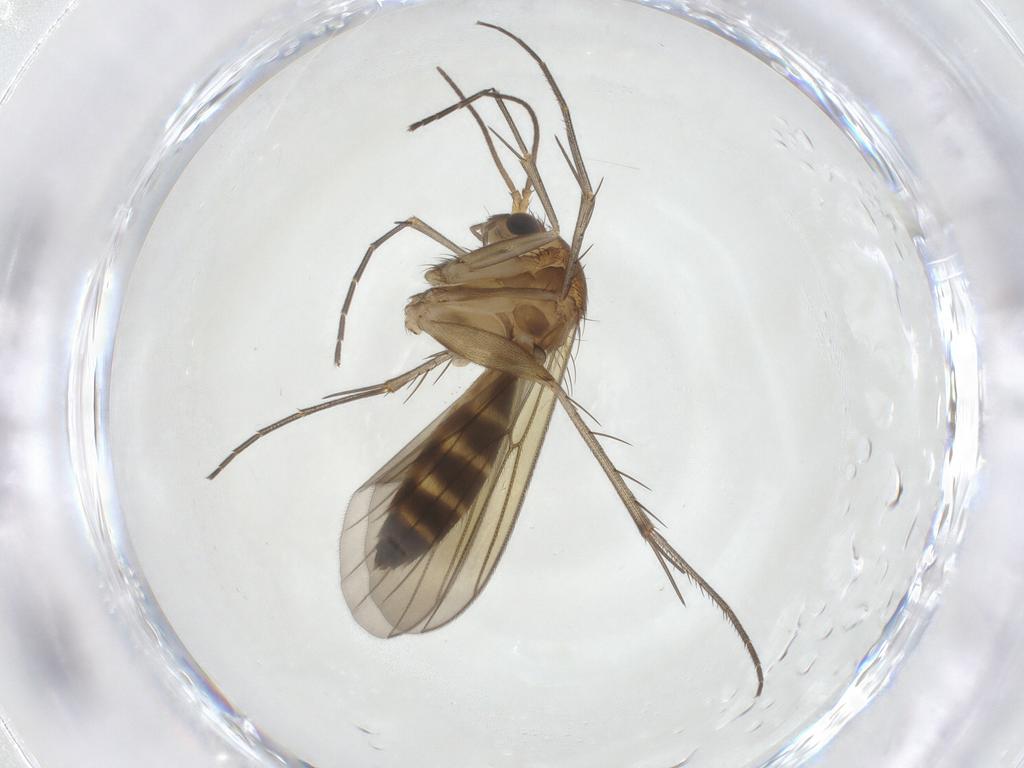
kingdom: Animalia
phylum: Arthropoda
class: Insecta
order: Diptera
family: Mycetophilidae
